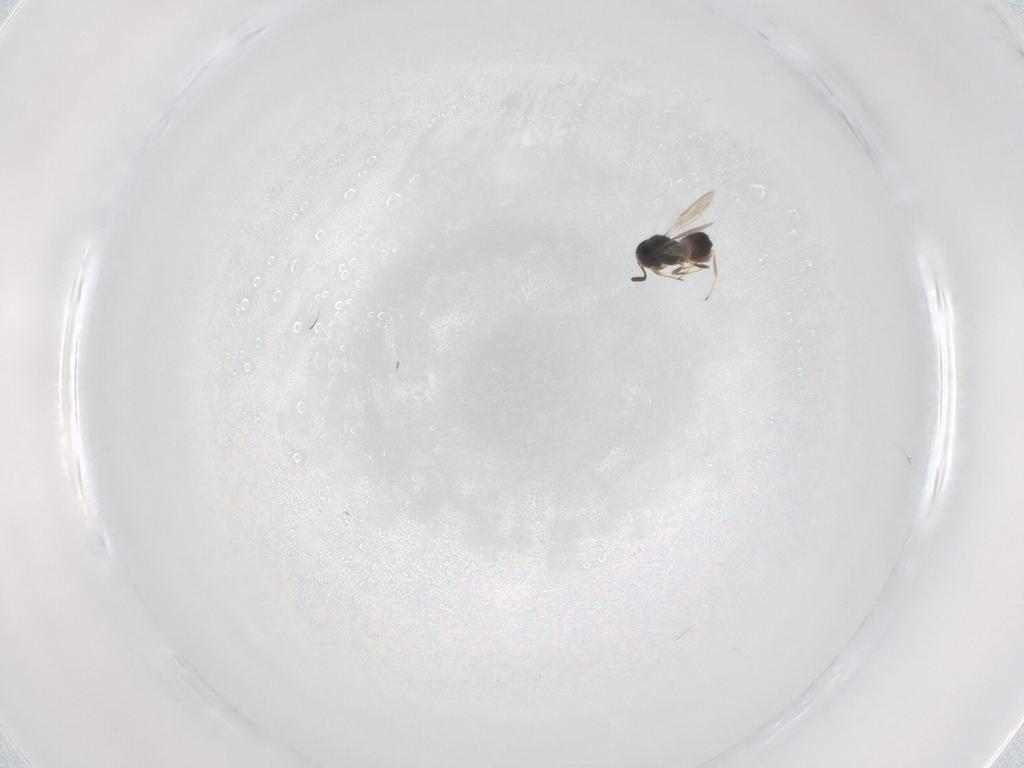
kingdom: Animalia
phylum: Arthropoda
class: Insecta
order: Hymenoptera
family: Scelionidae
